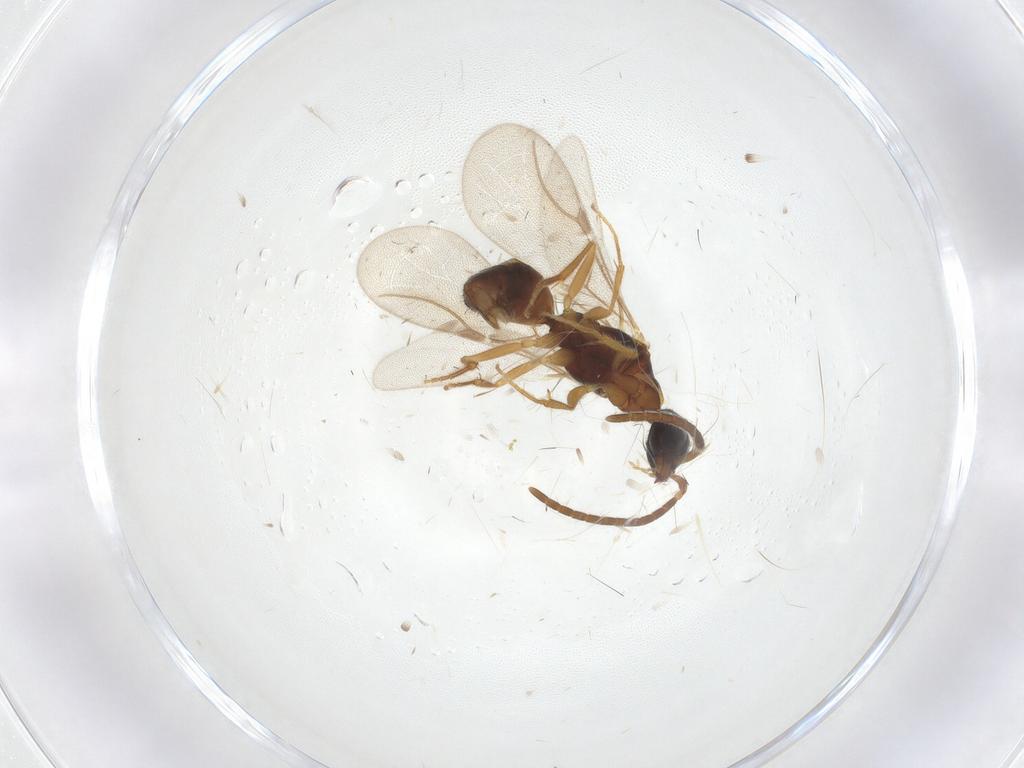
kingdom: Animalia
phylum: Arthropoda
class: Insecta
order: Hymenoptera
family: Bethylidae
